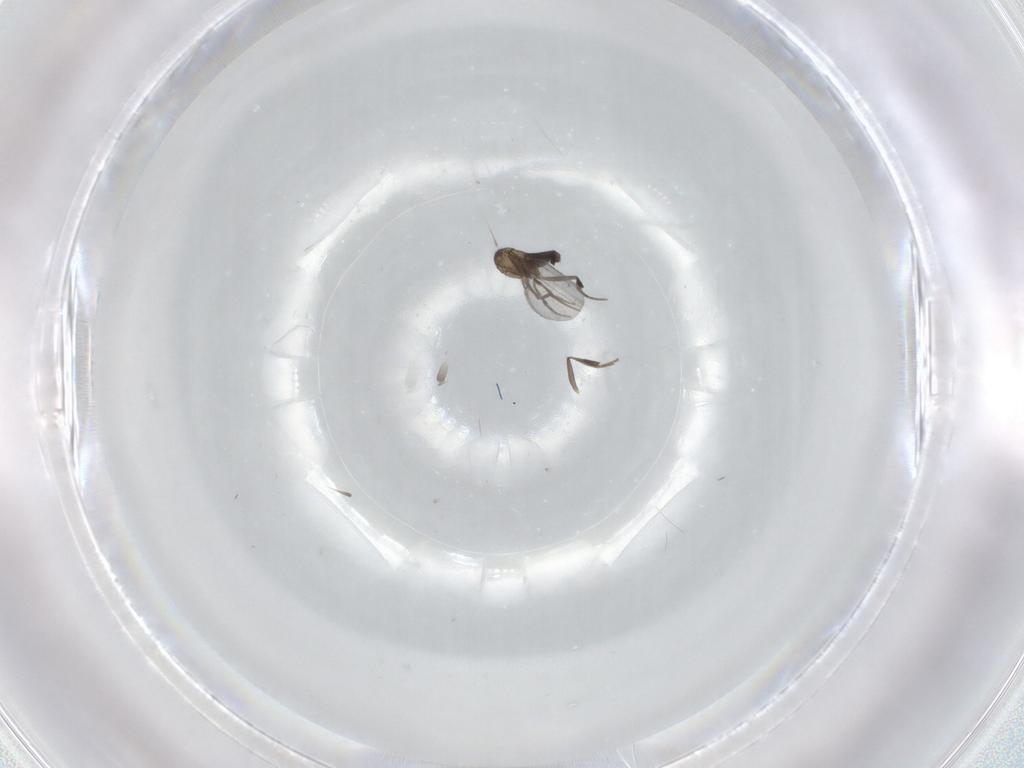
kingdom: Animalia
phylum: Arthropoda
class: Insecta
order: Diptera
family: Phoridae
